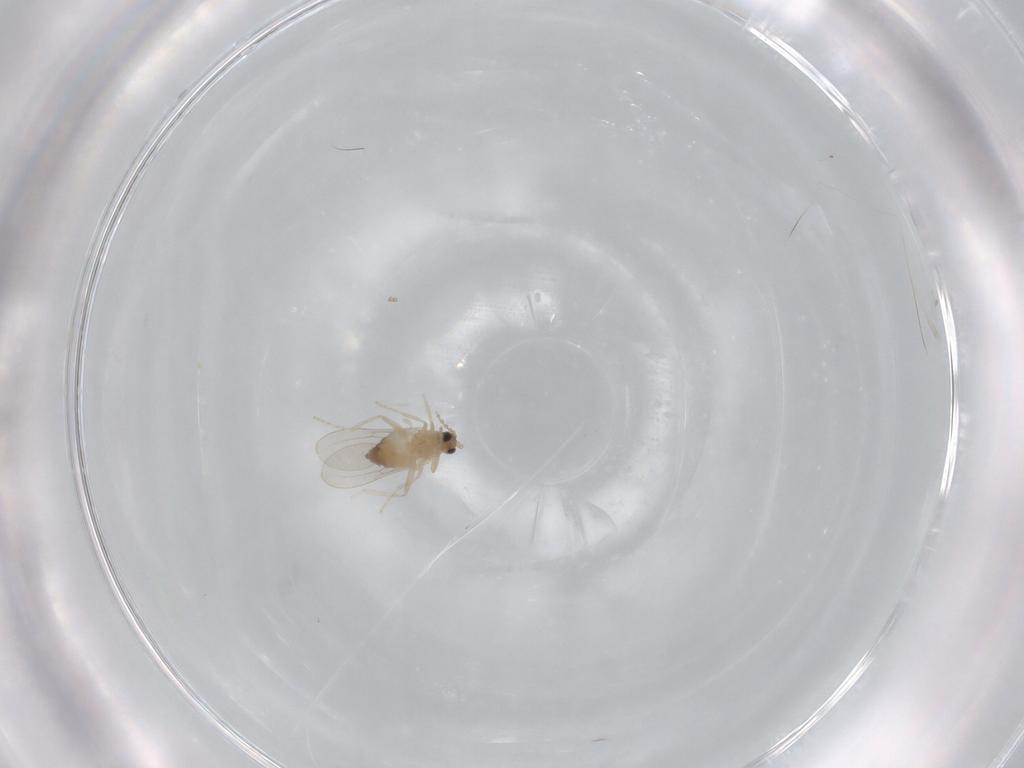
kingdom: Animalia
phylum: Arthropoda
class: Insecta
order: Diptera
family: Cecidomyiidae
